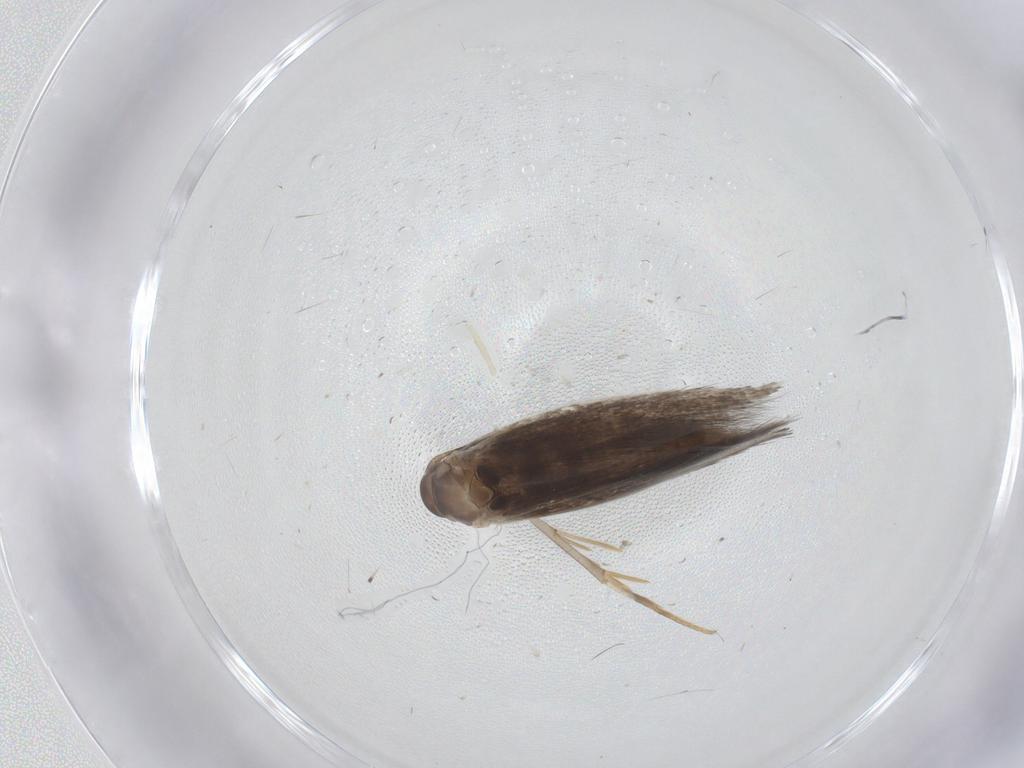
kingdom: Animalia
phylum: Arthropoda
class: Insecta
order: Lepidoptera
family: Elachistidae
